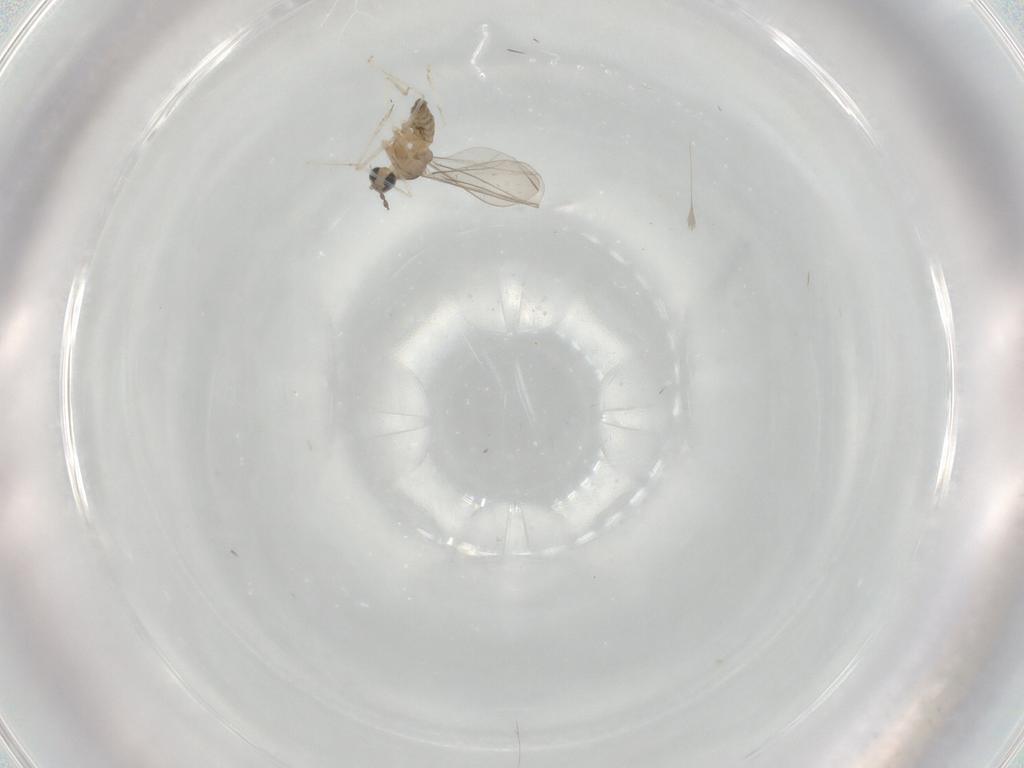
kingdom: Animalia
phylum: Arthropoda
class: Insecta
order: Diptera
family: Cecidomyiidae
